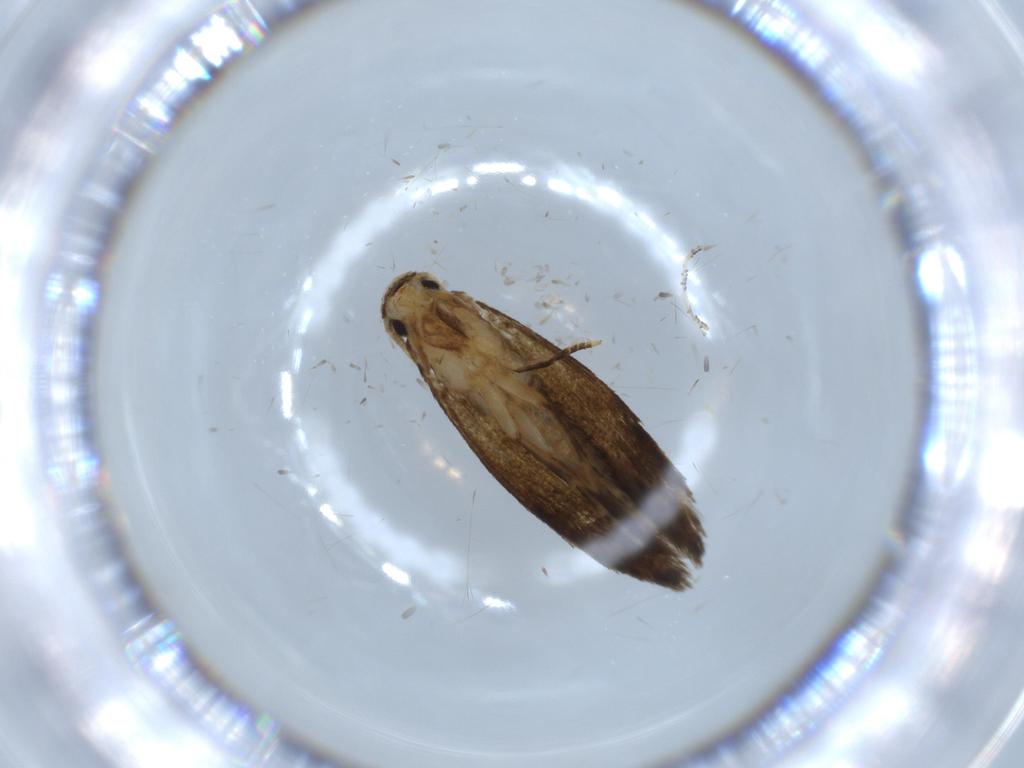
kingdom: Animalia
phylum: Arthropoda
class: Insecta
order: Lepidoptera
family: Tineidae
